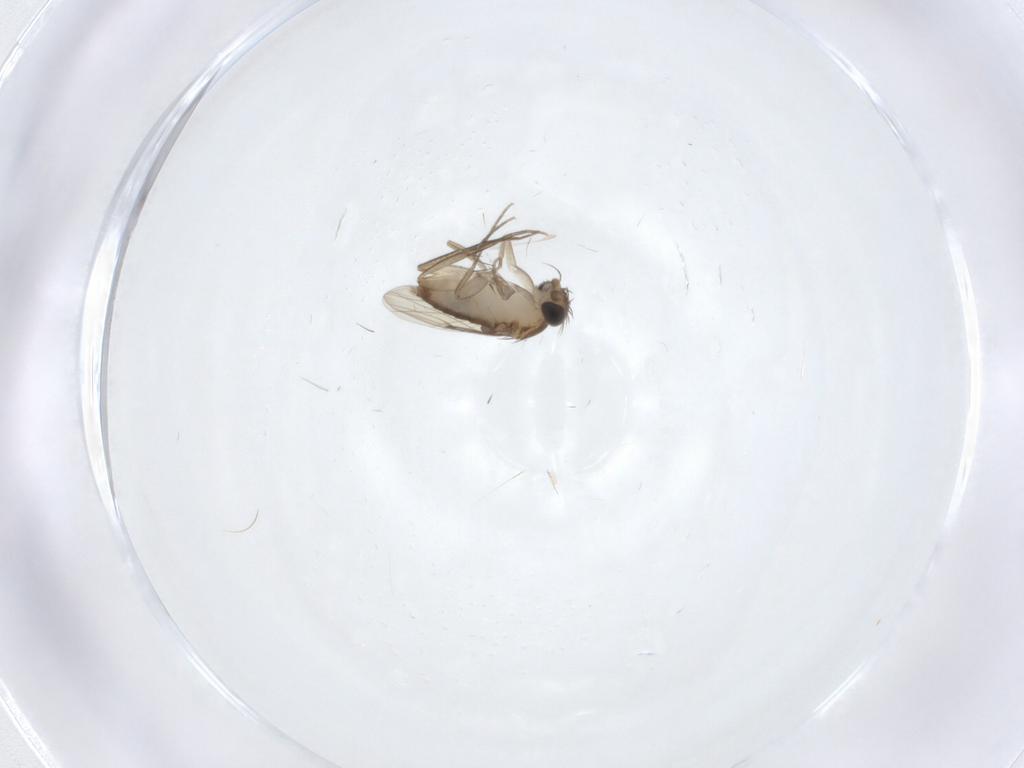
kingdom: Animalia
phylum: Arthropoda
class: Insecta
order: Diptera
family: Phoridae
